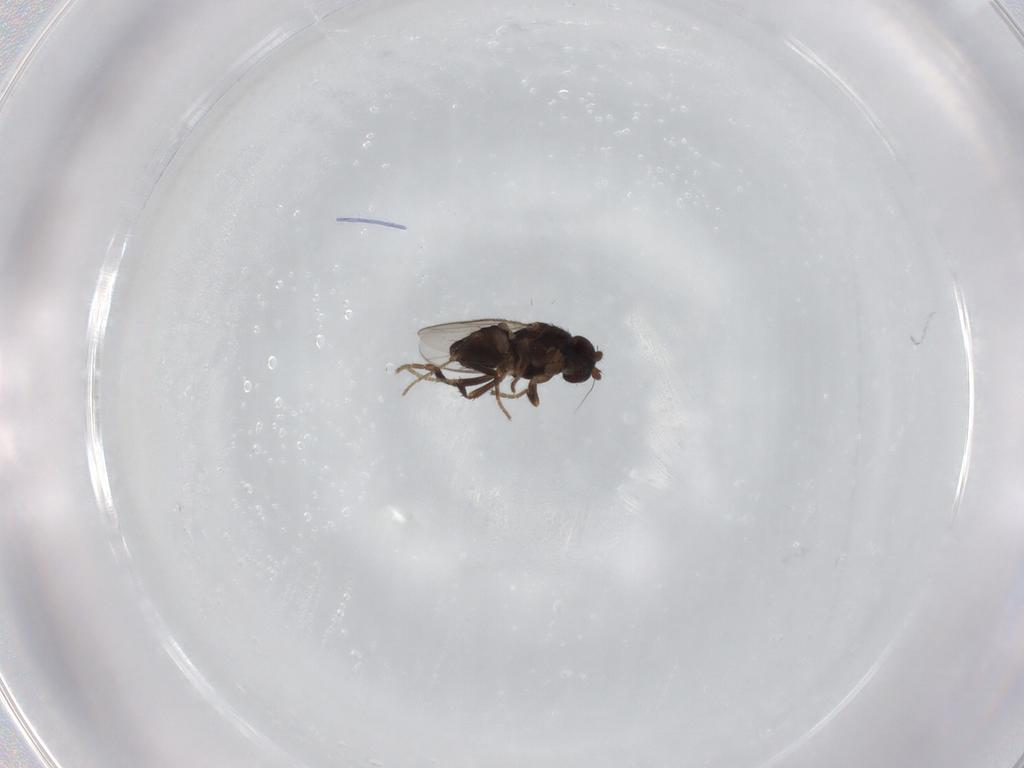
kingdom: Animalia
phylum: Arthropoda
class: Insecta
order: Diptera
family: Sphaeroceridae
